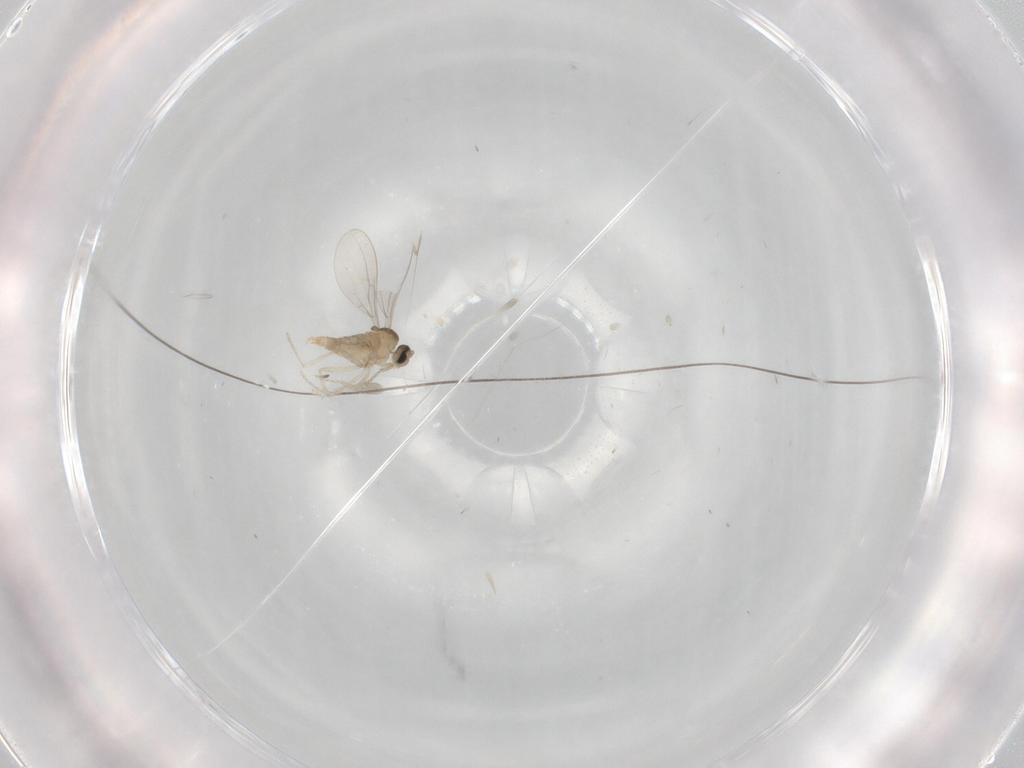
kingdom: Animalia
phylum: Arthropoda
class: Insecta
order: Diptera
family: Cecidomyiidae
